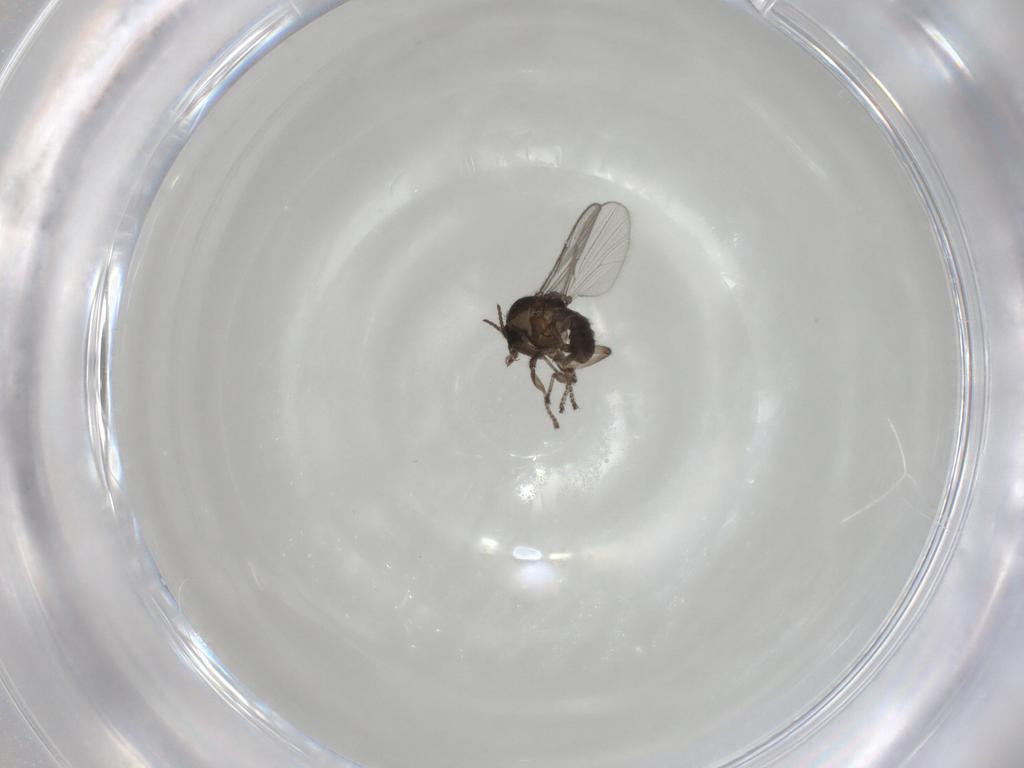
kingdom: Animalia
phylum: Arthropoda
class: Insecta
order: Diptera
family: Ceratopogonidae
